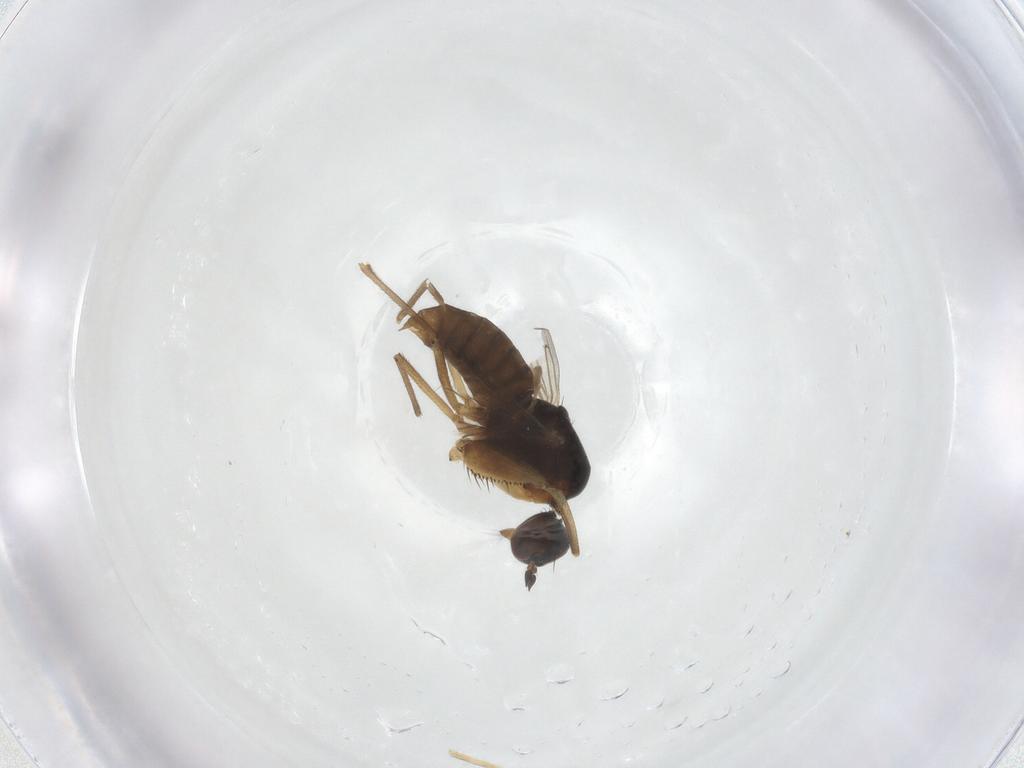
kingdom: Animalia
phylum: Arthropoda
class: Insecta
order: Diptera
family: Empididae
